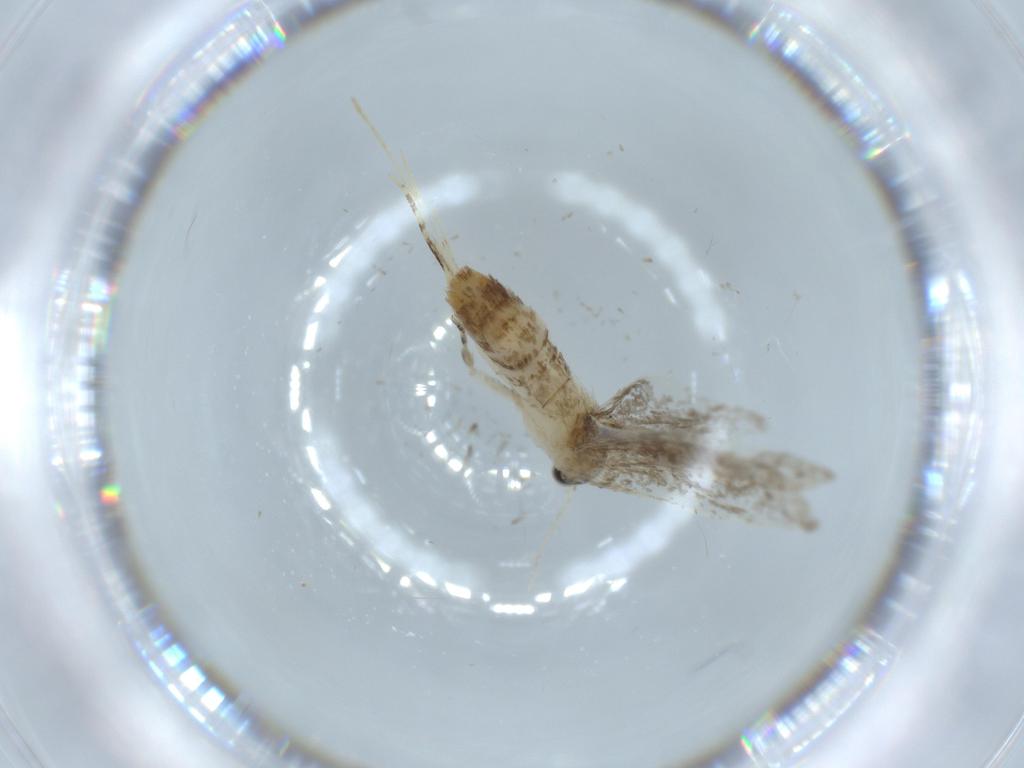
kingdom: Animalia
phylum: Arthropoda
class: Insecta
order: Lepidoptera
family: Tineidae
